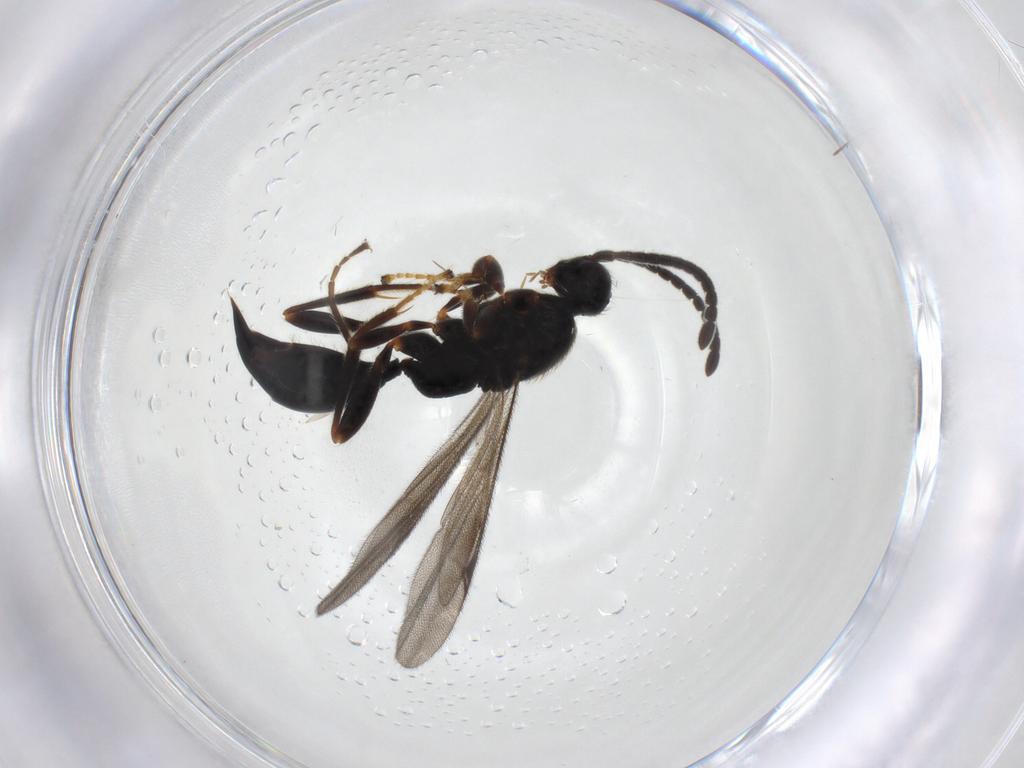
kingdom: Animalia
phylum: Arthropoda
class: Insecta
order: Hymenoptera
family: Proctotrupidae
